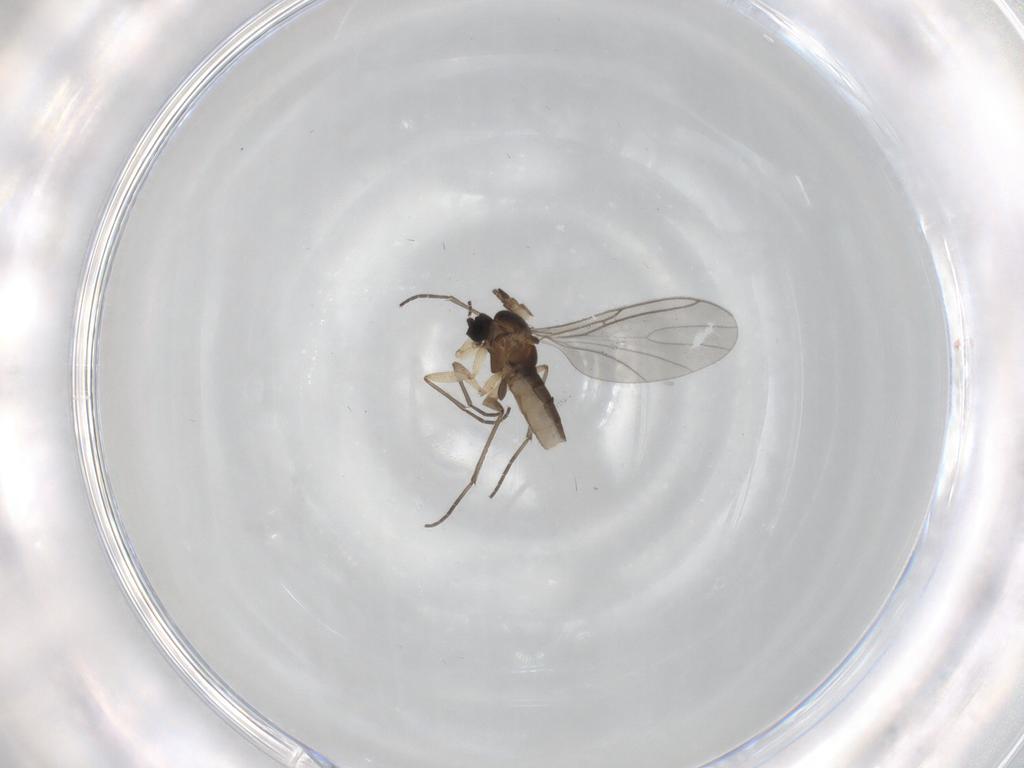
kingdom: Animalia
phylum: Arthropoda
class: Insecta
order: Diptera
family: Sciaridae
